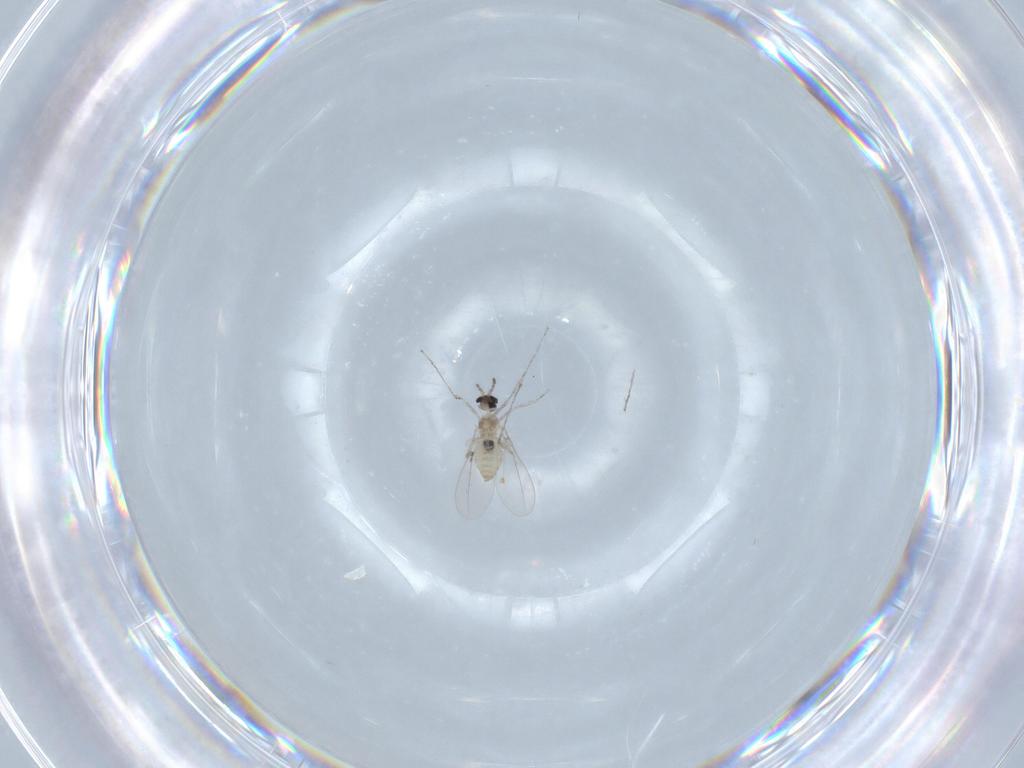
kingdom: Animalia
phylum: Arthropoda
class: Insecta
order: Diptera
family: Cecidomyiidae
